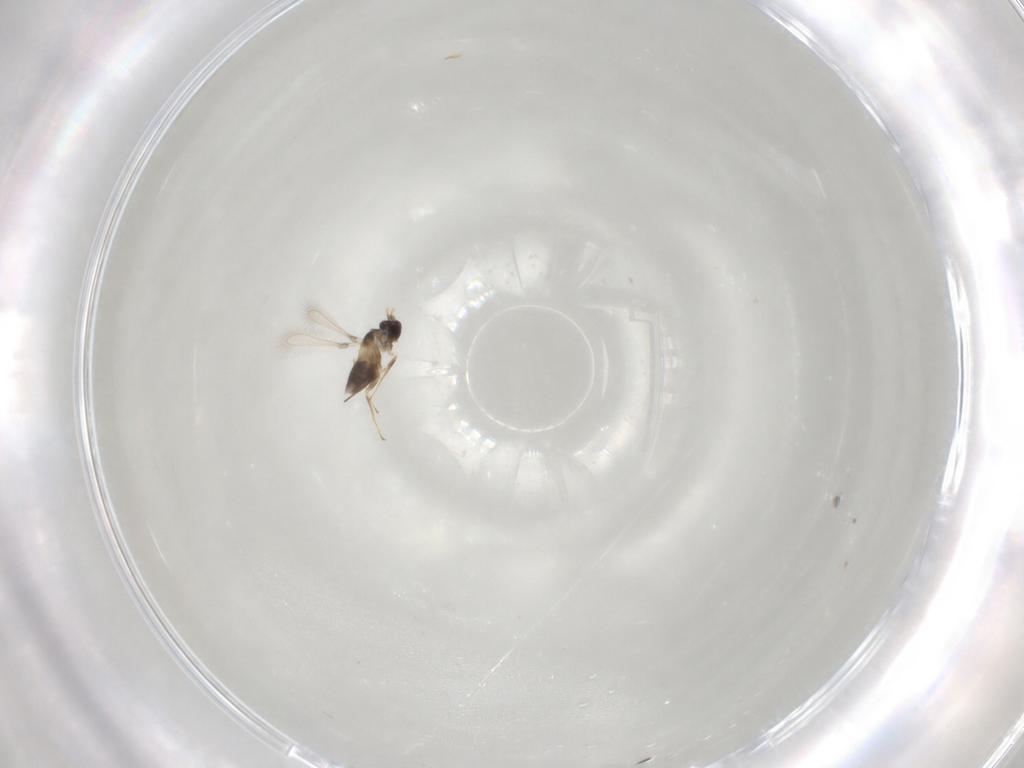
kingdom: Animalia
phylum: Arthropoda
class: Insecta
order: Hymenoptera
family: Mymaridae
